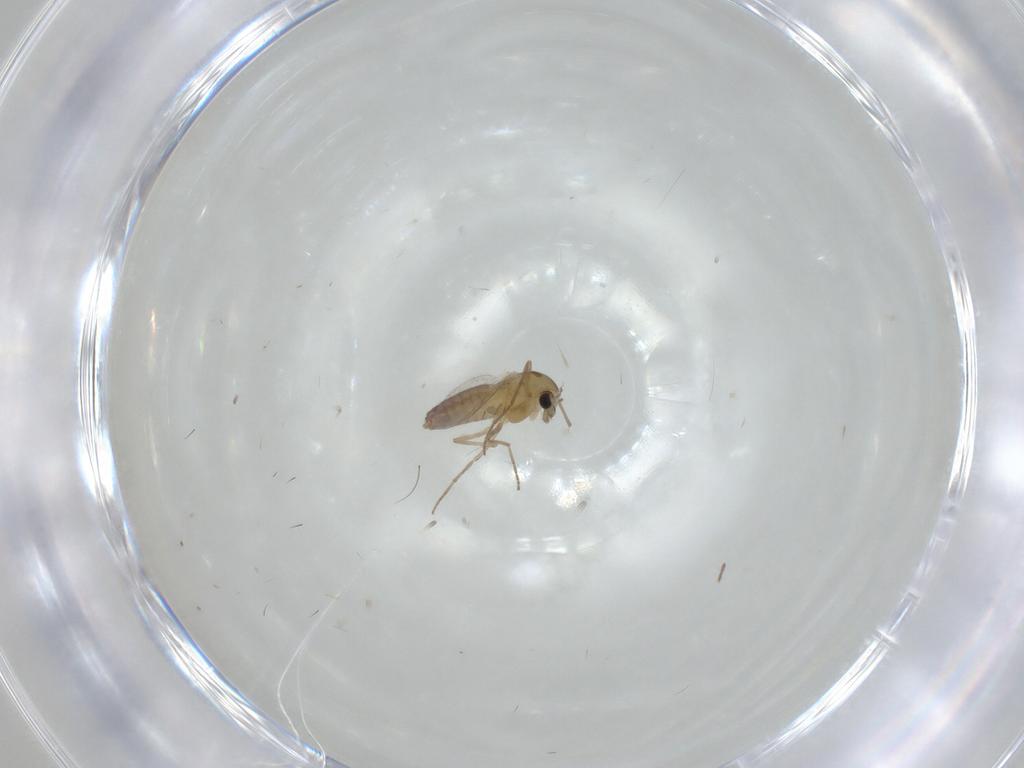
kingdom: Animalia
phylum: Arthropoda
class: Insecta
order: Diptera
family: Chironomidae
